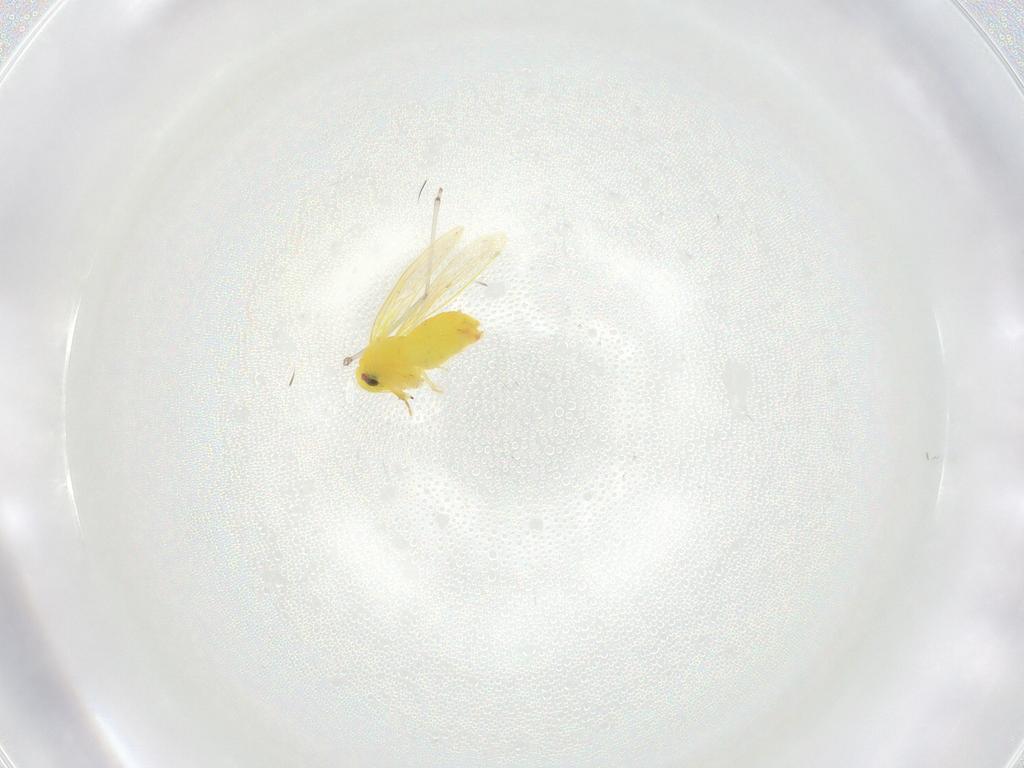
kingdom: Animalia
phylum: Arthropoda
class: Insecta
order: Hemiptera
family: Aleyrodidae
